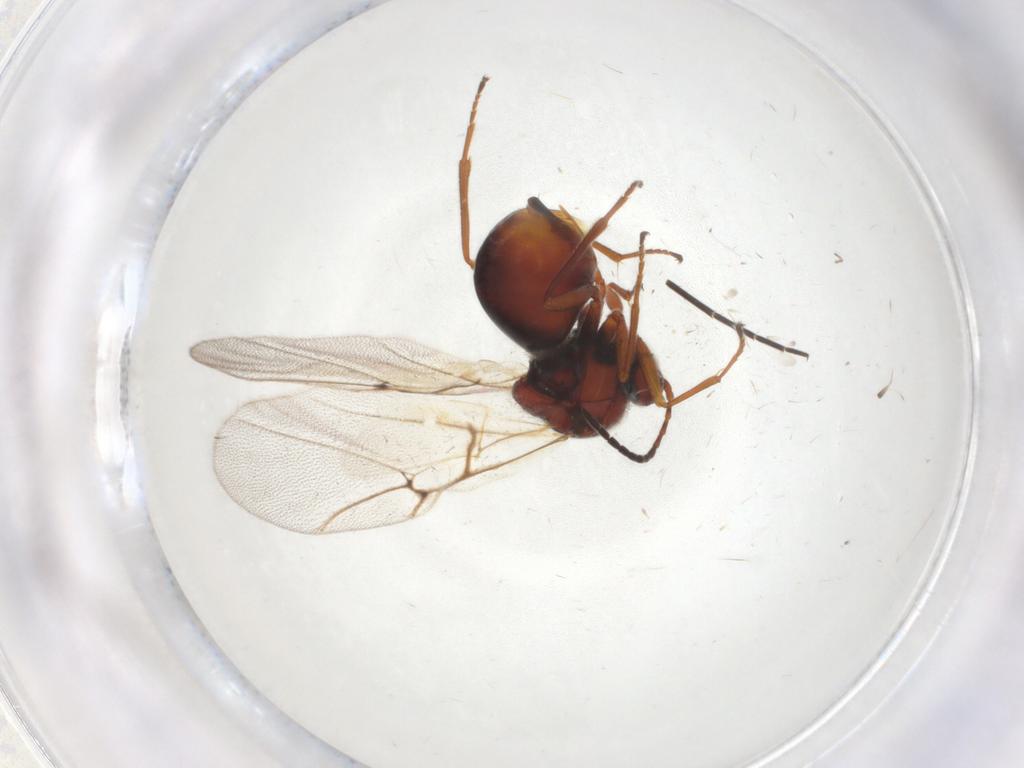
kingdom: Animalia
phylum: Arthropoda
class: Insecta
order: Hymenoptera
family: Cynipidae
